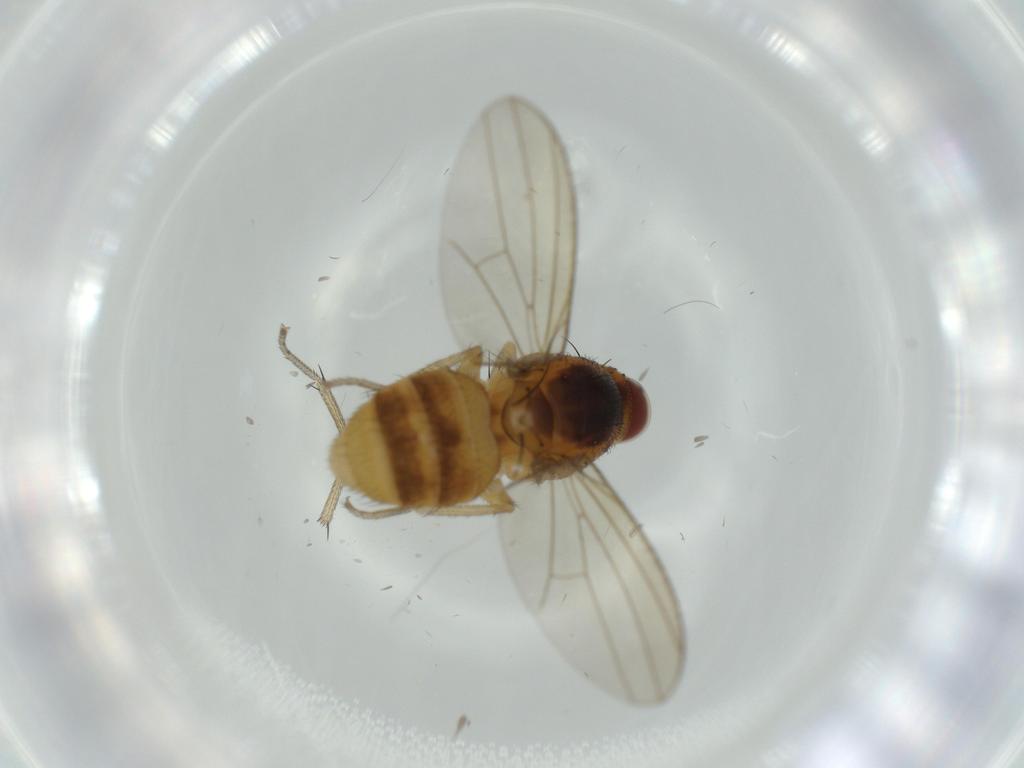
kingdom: Animalia
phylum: Arthropoda
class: Insecta
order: Diptera
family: Lauxaniidae
